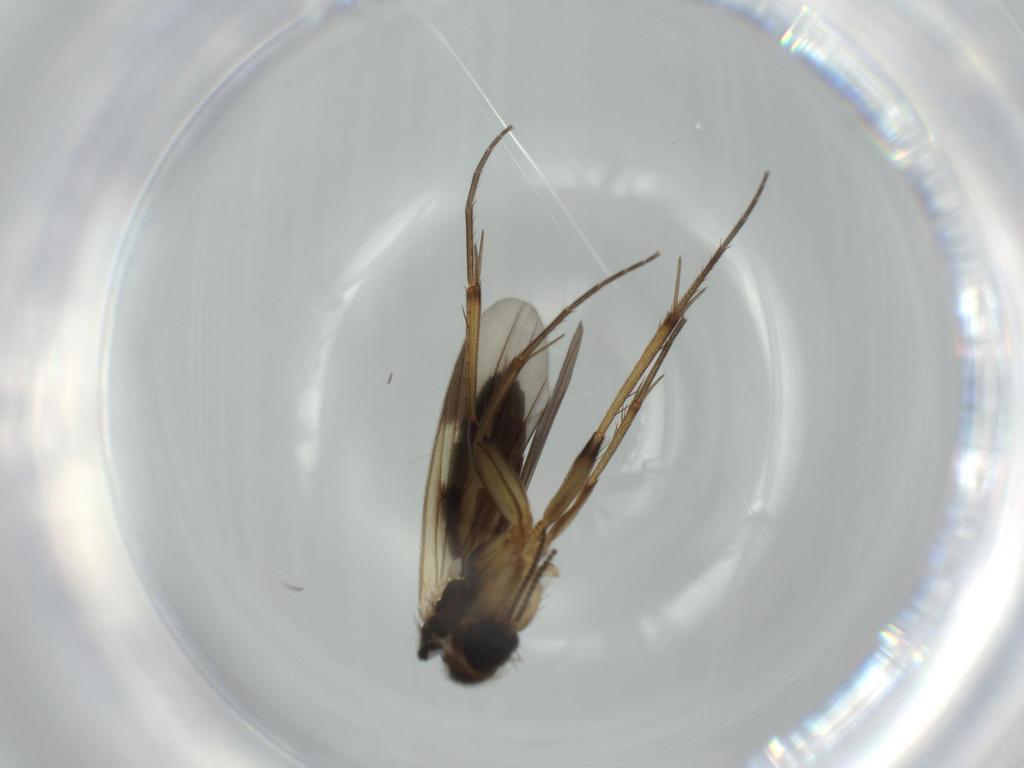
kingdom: Animalia
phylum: Arthropoda
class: Insecta
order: Diptera
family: Mycetophilidae
